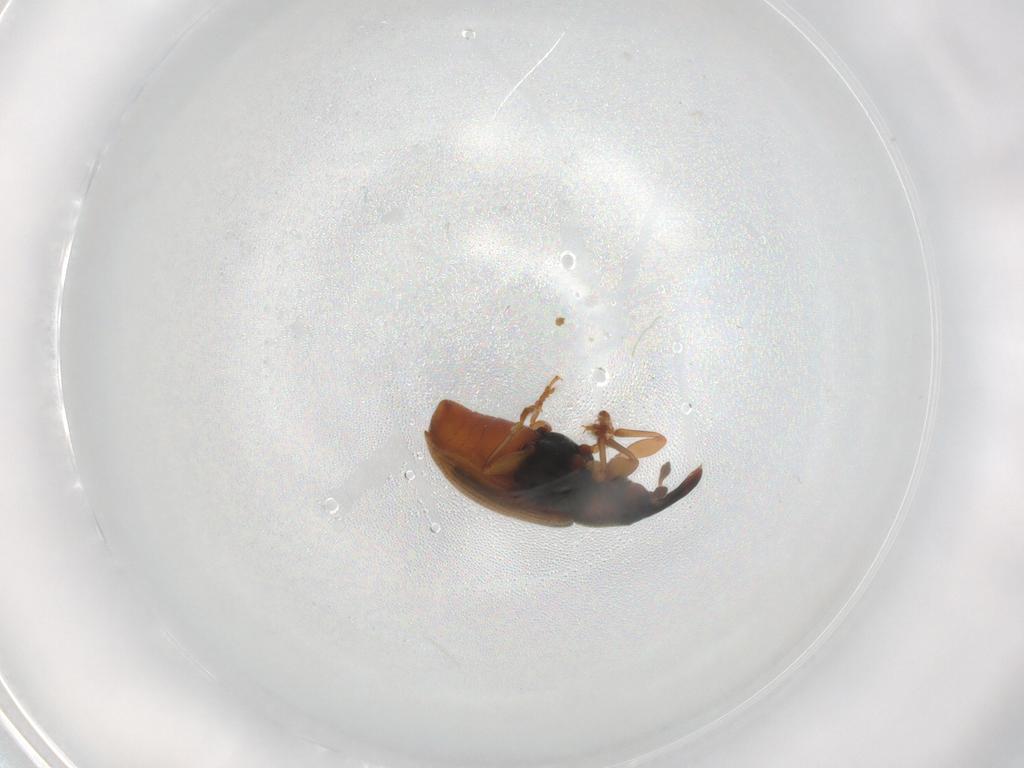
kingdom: Animalia
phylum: Arthropoda
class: Insecta
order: Coleoptera
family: Curculionidae
